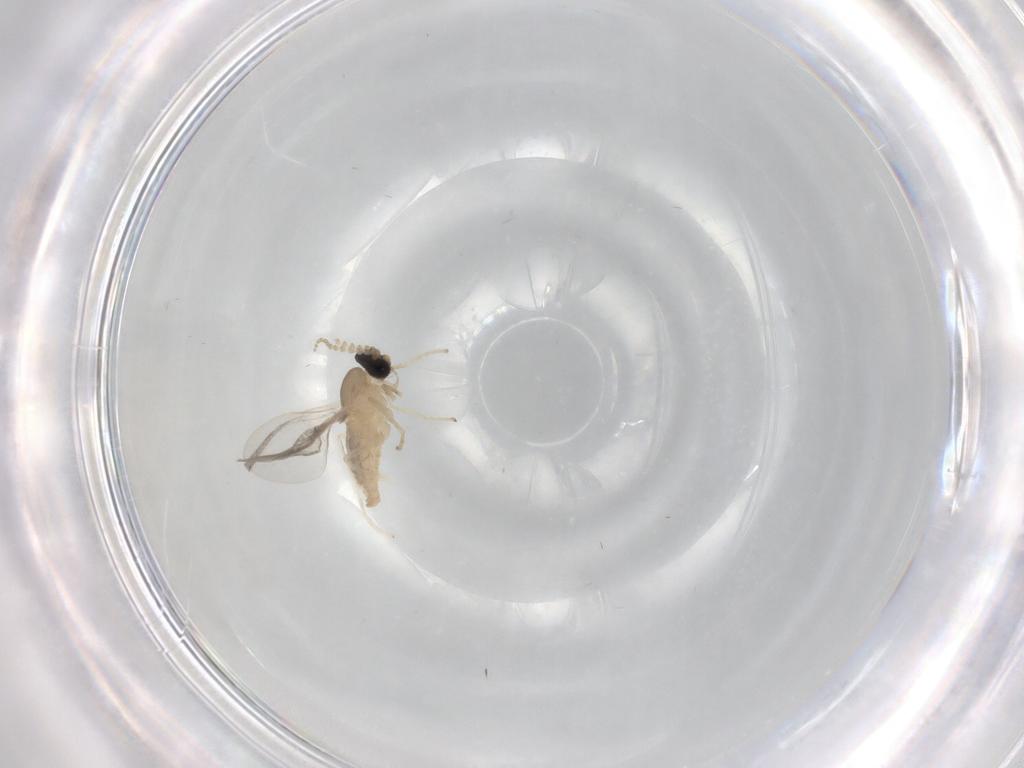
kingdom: Animalia
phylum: Arthropoda
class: Insecta
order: Diptera
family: Cecidomyiidae
